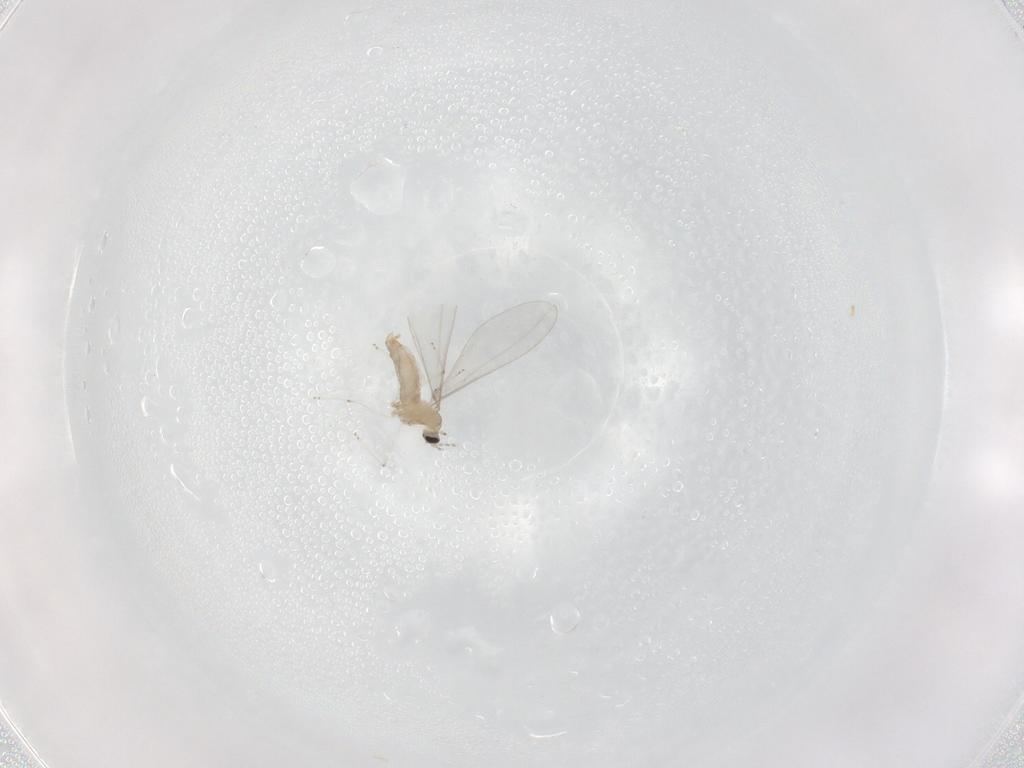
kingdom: Animalia
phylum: Arthropoda
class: Insecta
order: Diptera
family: Cecidomyiidae
